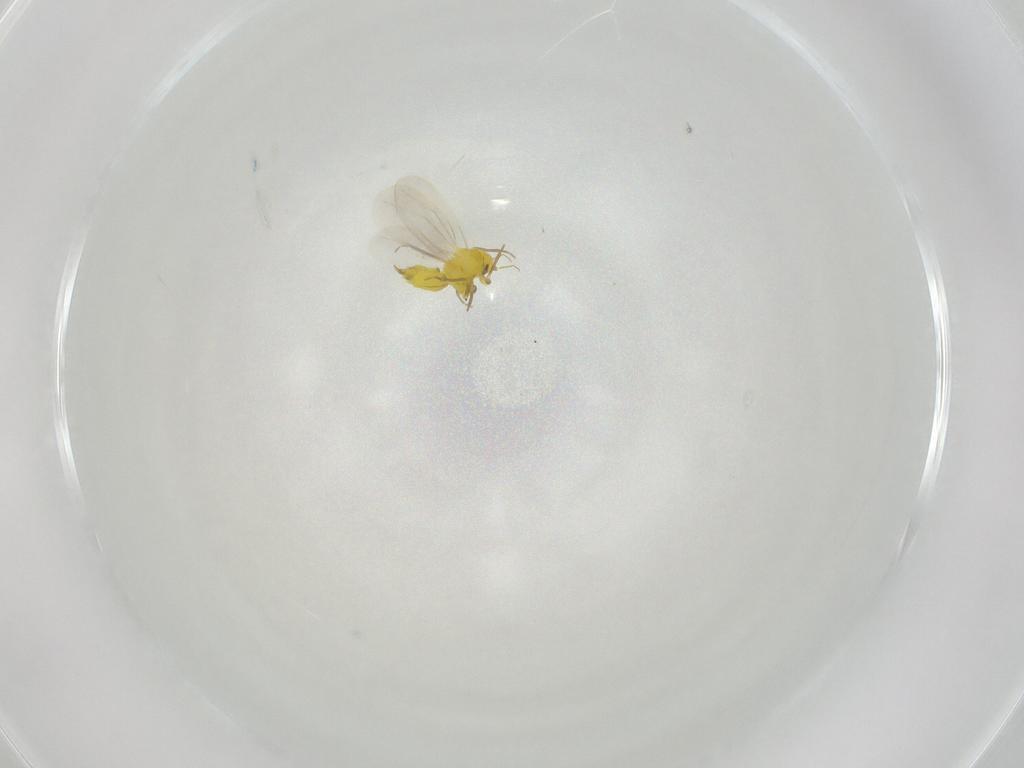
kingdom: Animalia
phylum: Arthropoda
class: Insecta
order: Hemiptera
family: Aleyrodidae
